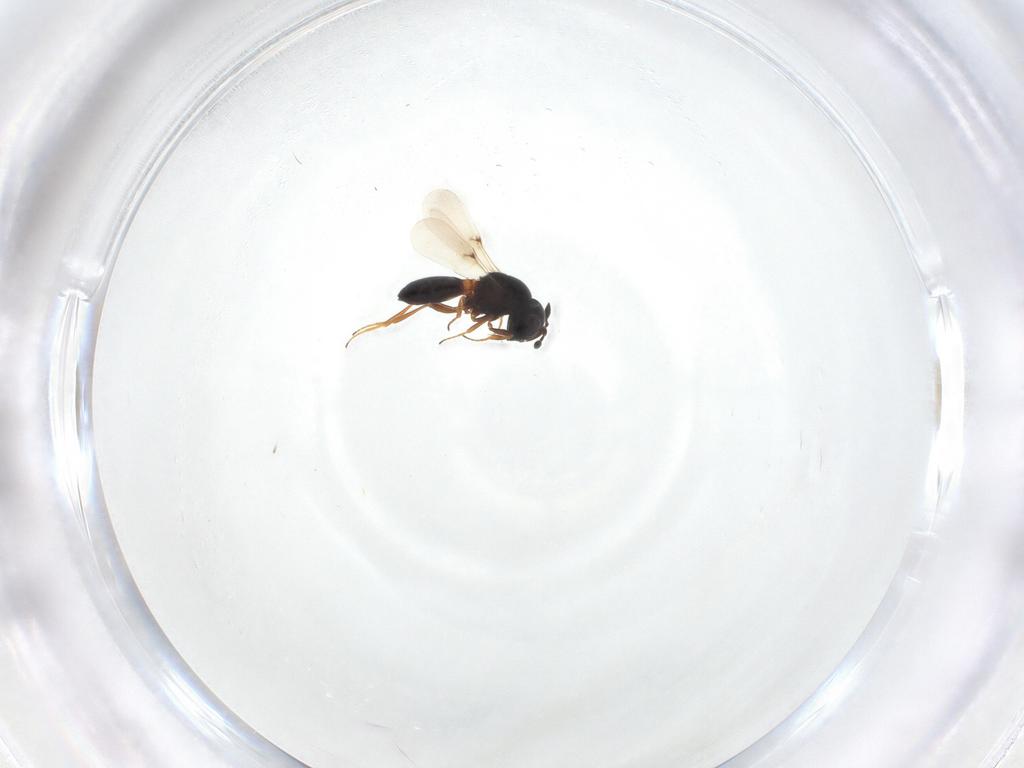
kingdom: Animalia
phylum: Arthropoda
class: Insecta
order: Hymenoptera
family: Scelionidae
